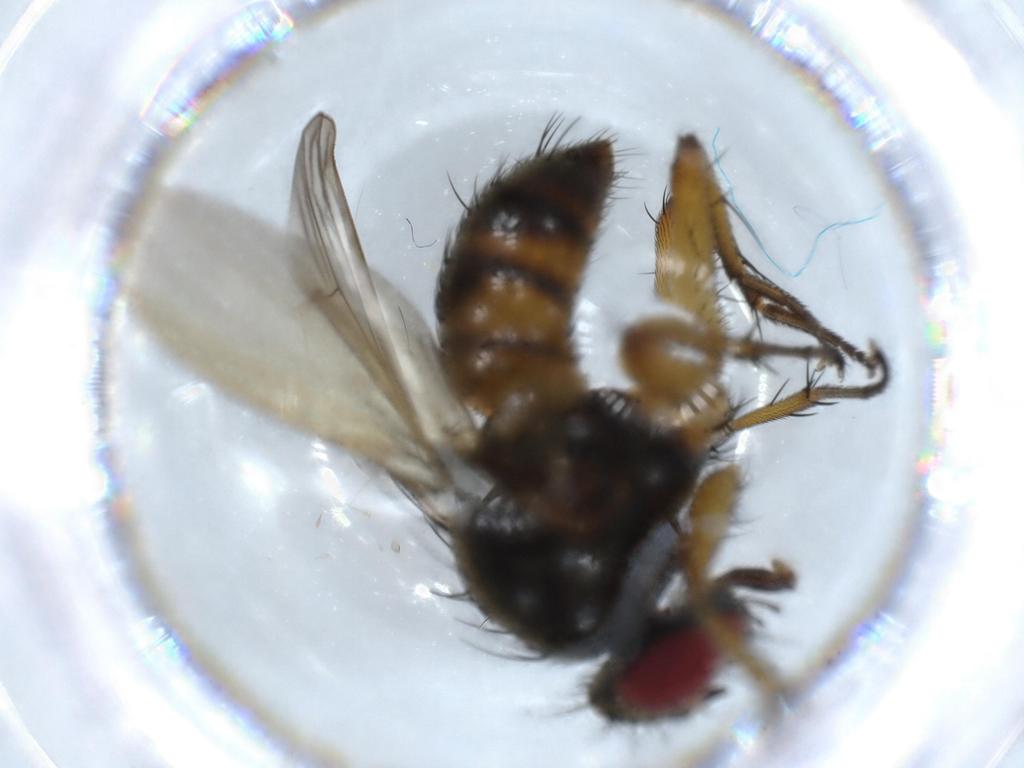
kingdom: Animalia
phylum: Arthropoda
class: Insecta
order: Diptera
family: Muscidae
